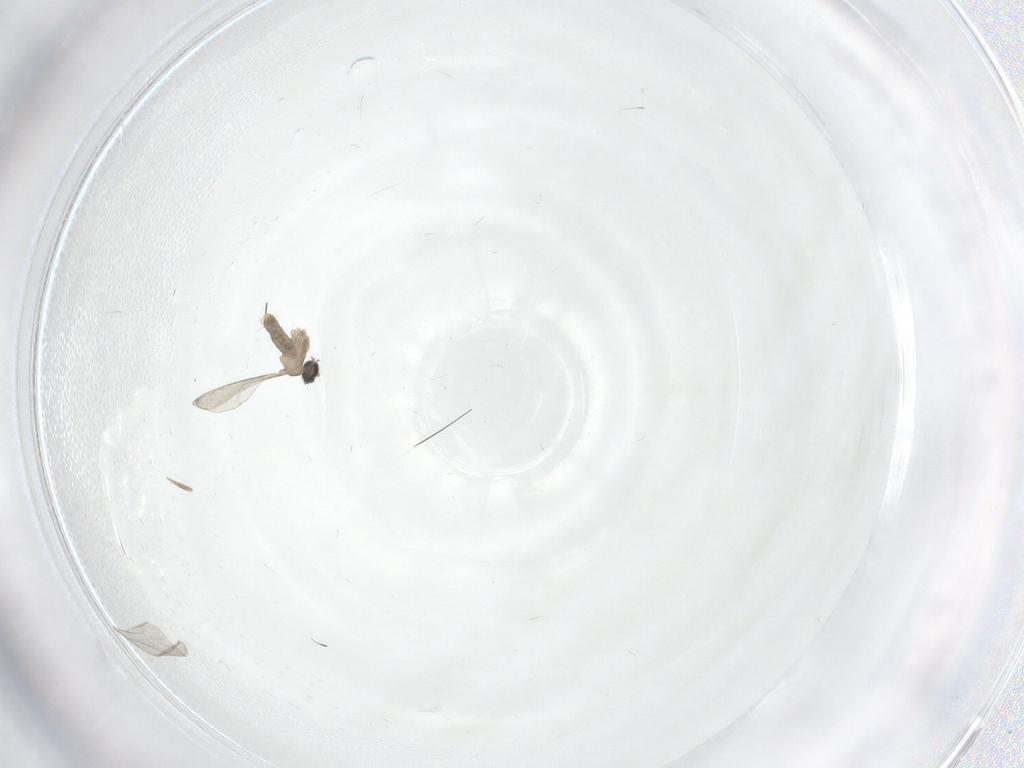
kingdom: Animalia
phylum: Arthropoda
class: Insecta
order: Diptera
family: Cecidomyiidae
